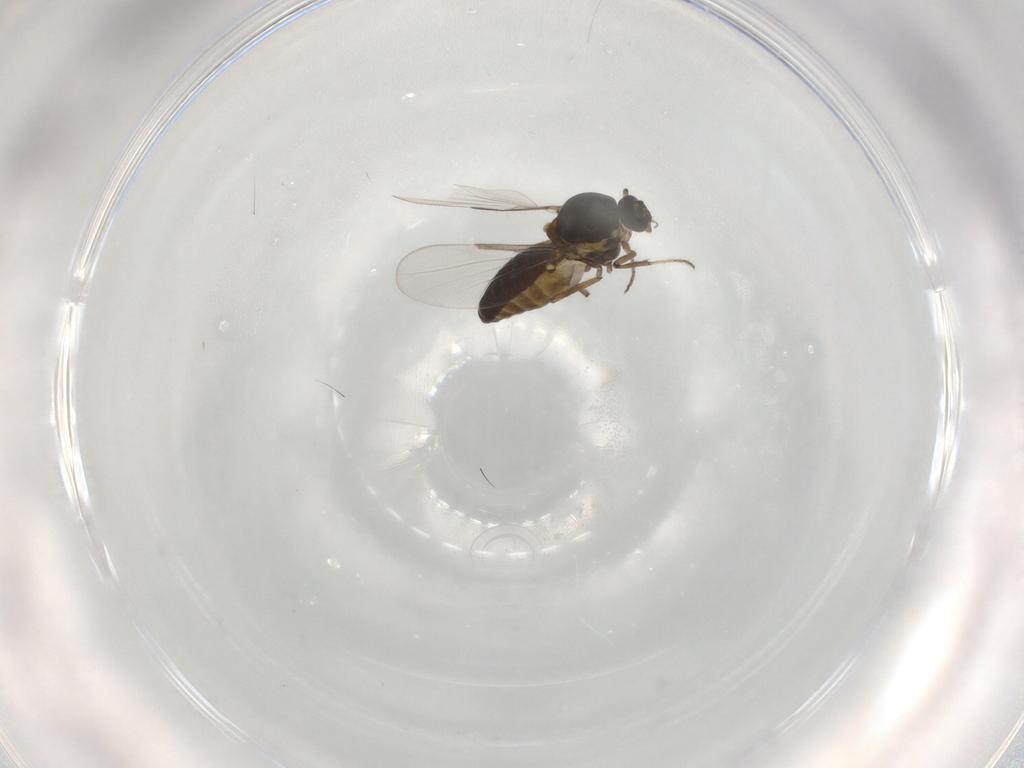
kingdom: Animalia
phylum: Arthropoda
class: Insecta
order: Diptera
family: Ceratopogonidae
